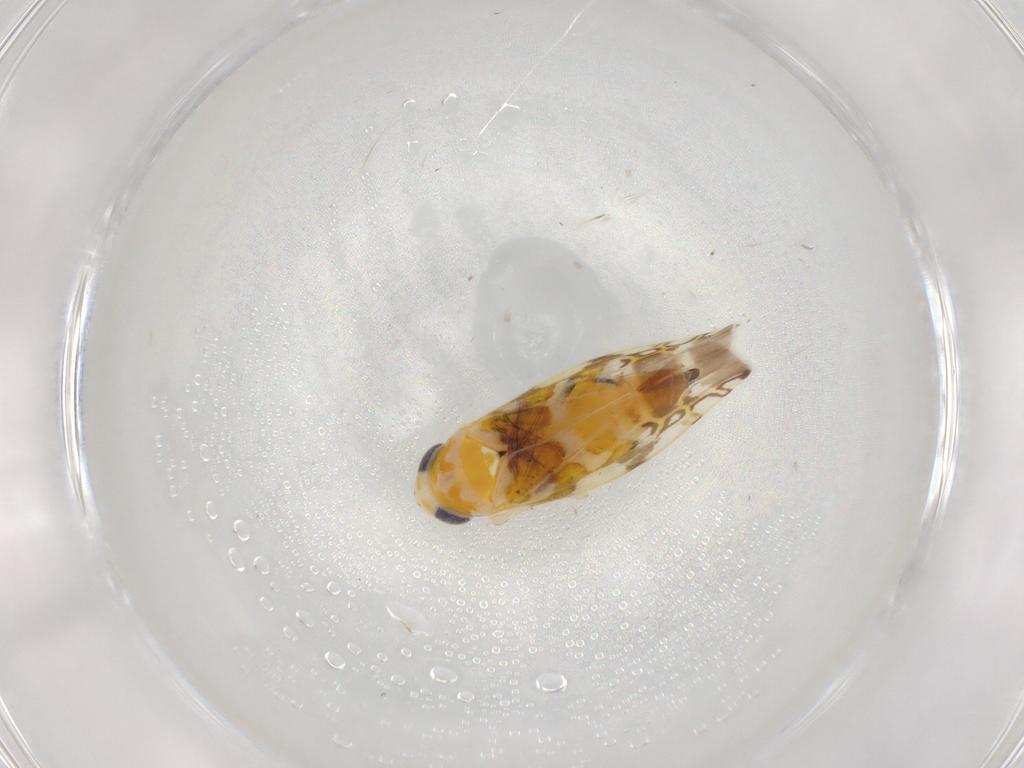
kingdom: Animalia
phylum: Arthropoda
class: Insecta
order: Hemiptera
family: Cicadellidae
